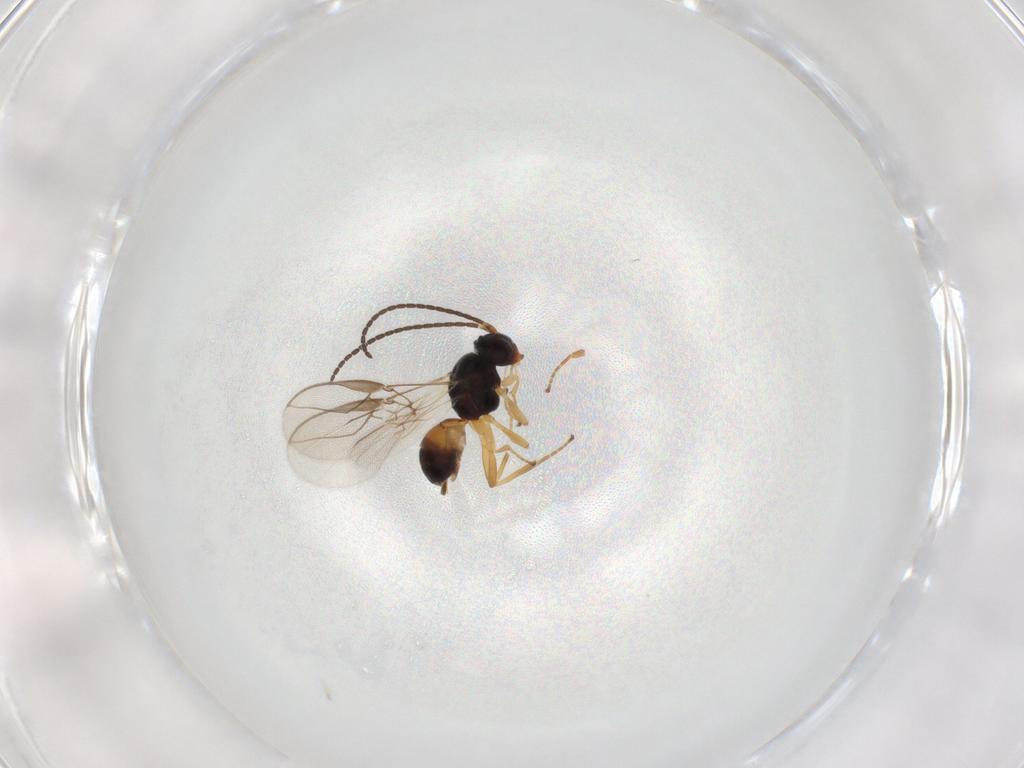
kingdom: Animalia
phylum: Arthropoda
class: Insecta
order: Hymenoptera
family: Braconidae
